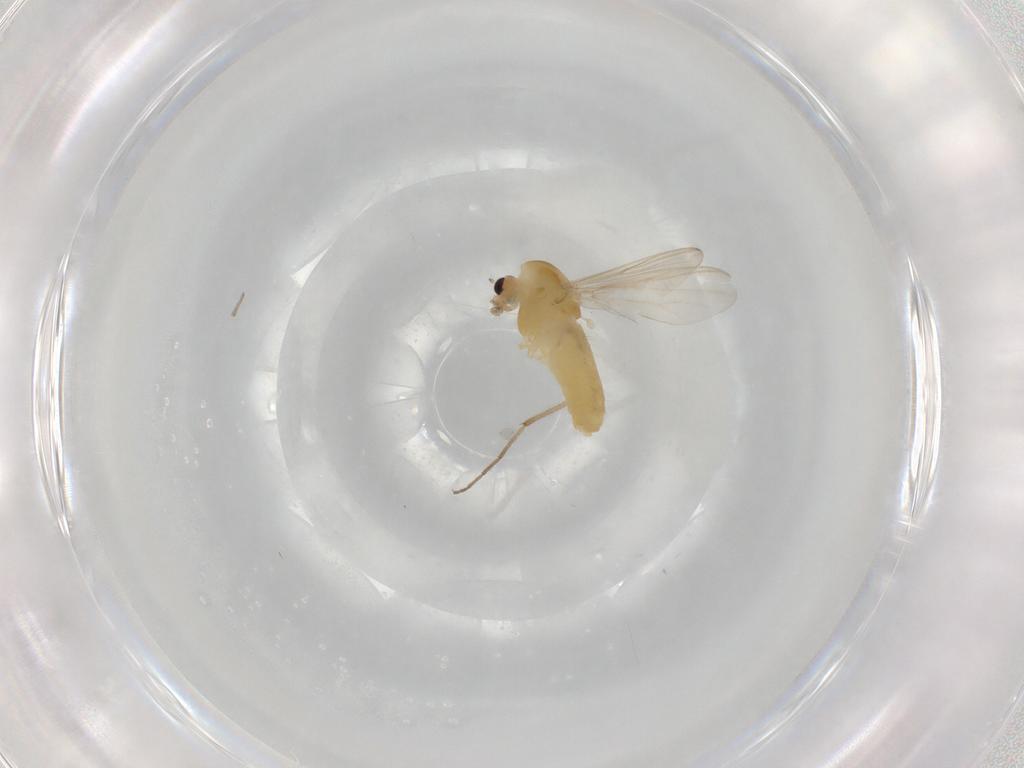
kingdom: Animalia
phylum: Arthropoda
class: Insecta
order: Diptera
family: Chironomidae
